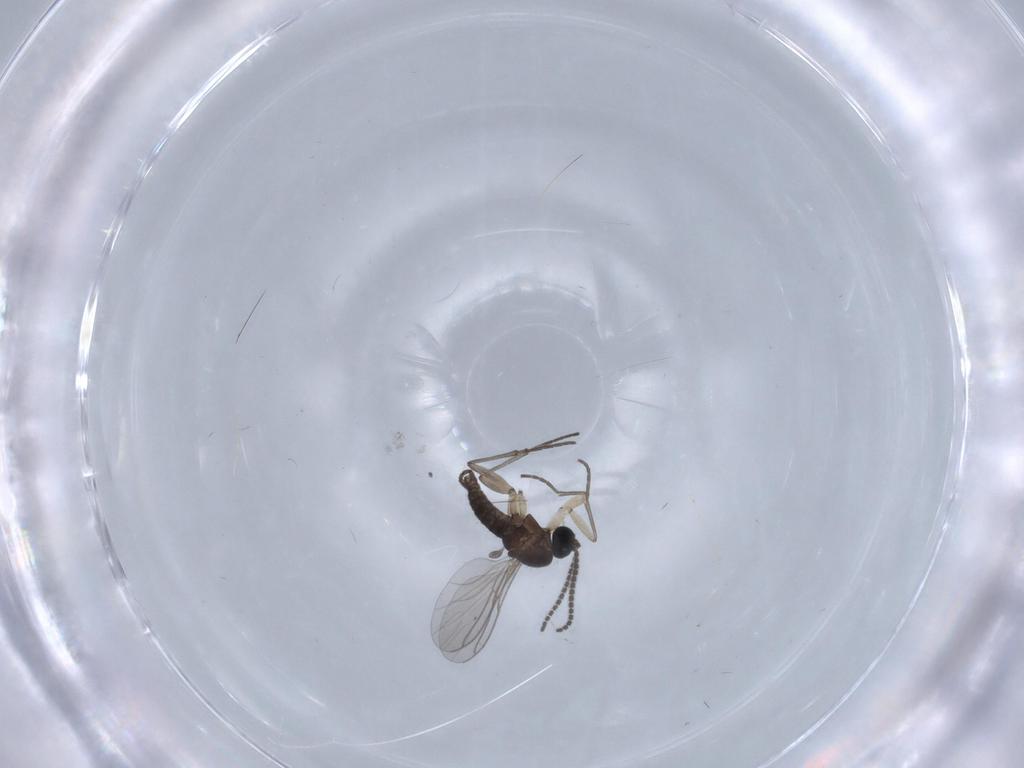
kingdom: Animalia
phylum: Arthropoda
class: Insecta
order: Diptera
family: Sciaridae
